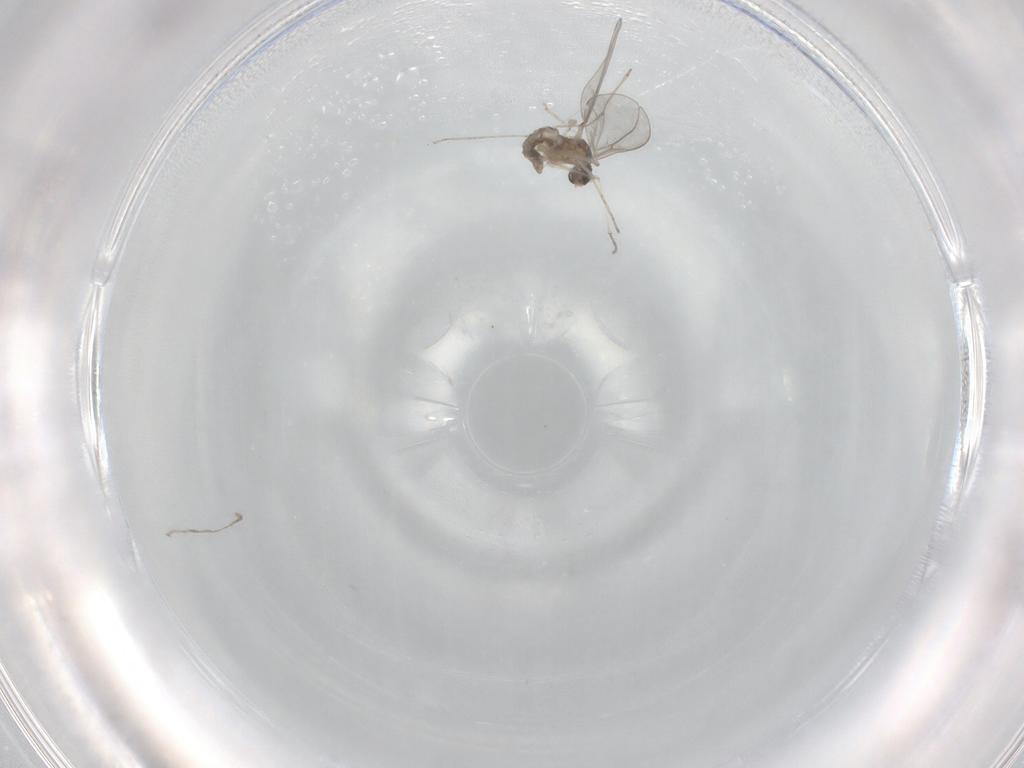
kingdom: Animalia
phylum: Arthropoda
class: Insecta
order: Diptera
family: Cecidomyiidae
